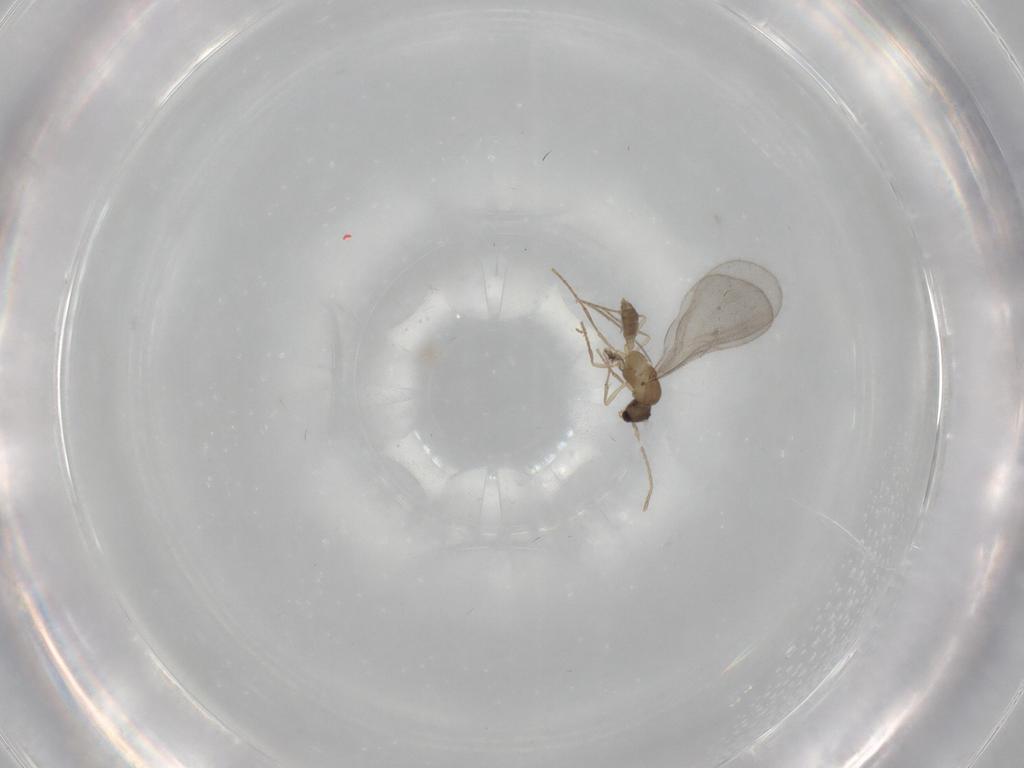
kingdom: Animalia
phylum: Arthropoda
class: Insecta
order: Hymenoptera
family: Formicidae
